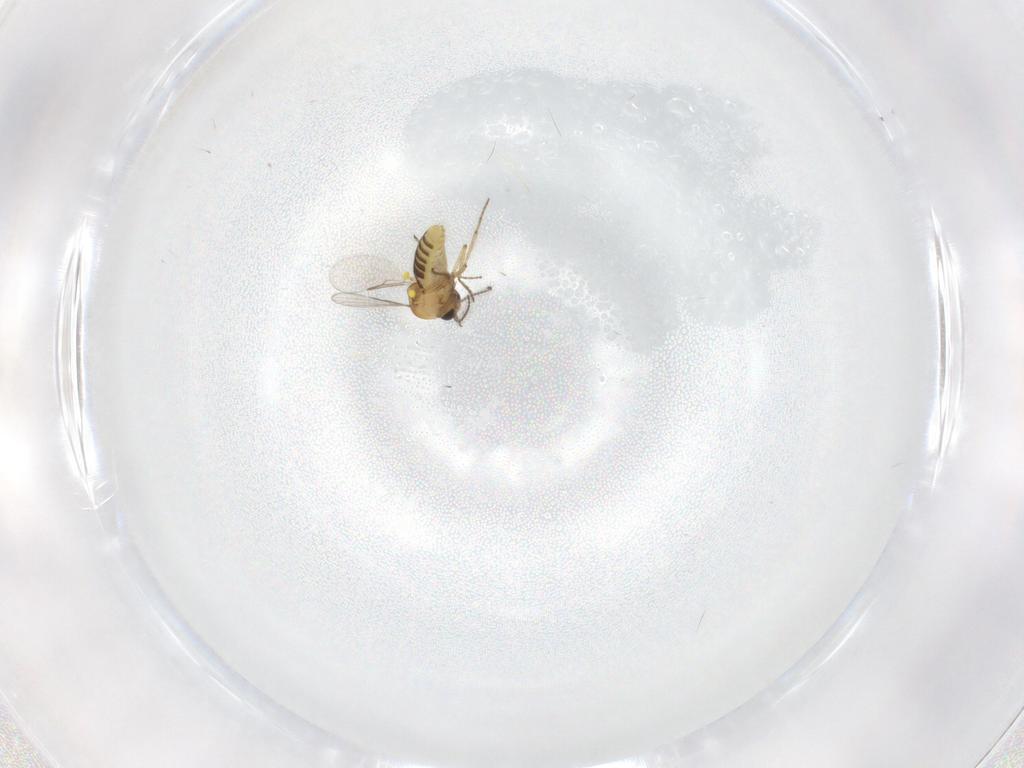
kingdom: Animalia
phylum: Arthropoda
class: Insecta
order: Diptera
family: Ceratopogonidae
